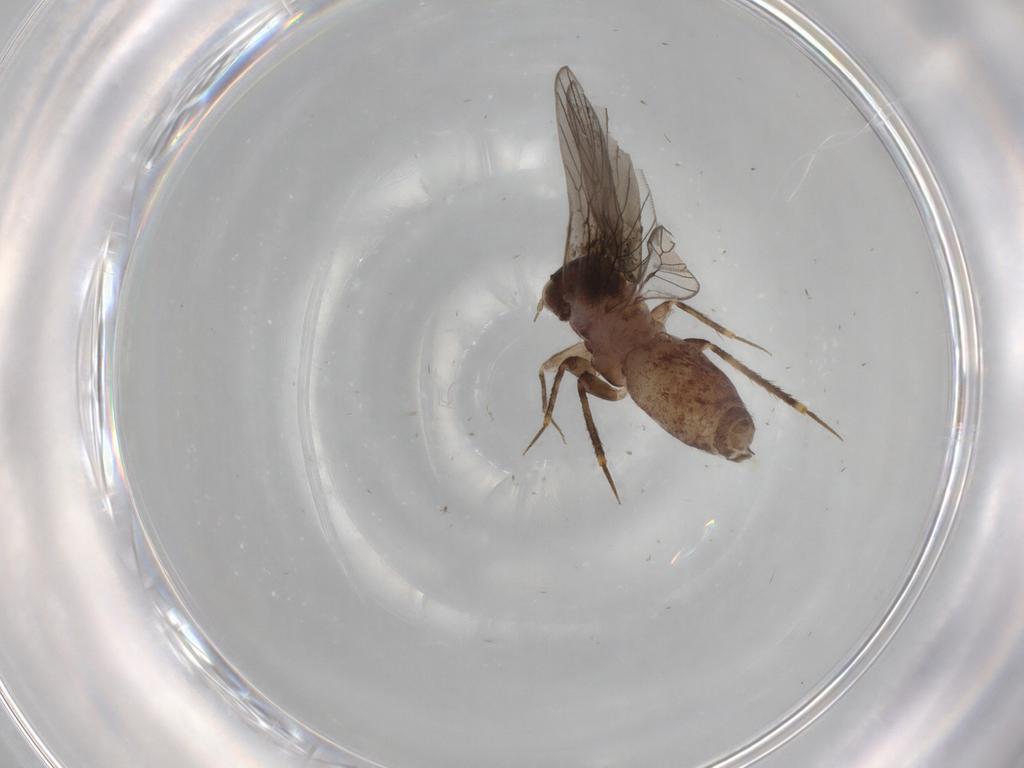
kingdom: Animalia
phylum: Arthropoda
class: Insecta
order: Psocodea
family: Lepidopsocidae
